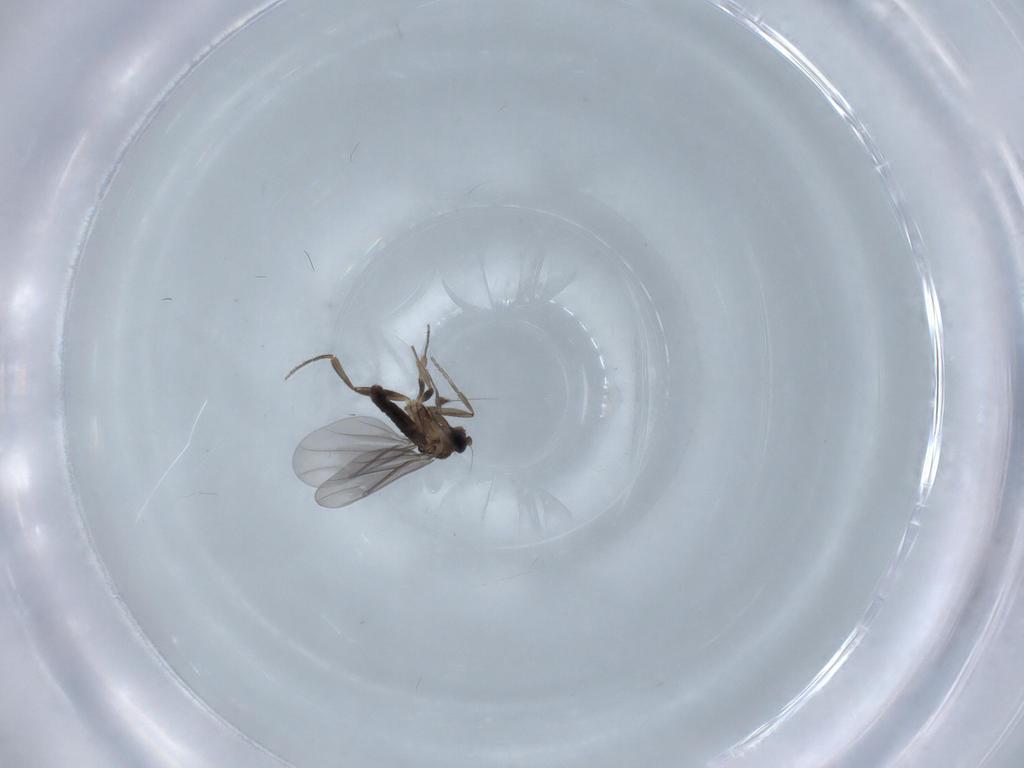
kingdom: Animalia
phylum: Arthropoda
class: Insecta
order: Diptera
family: Phoridae
